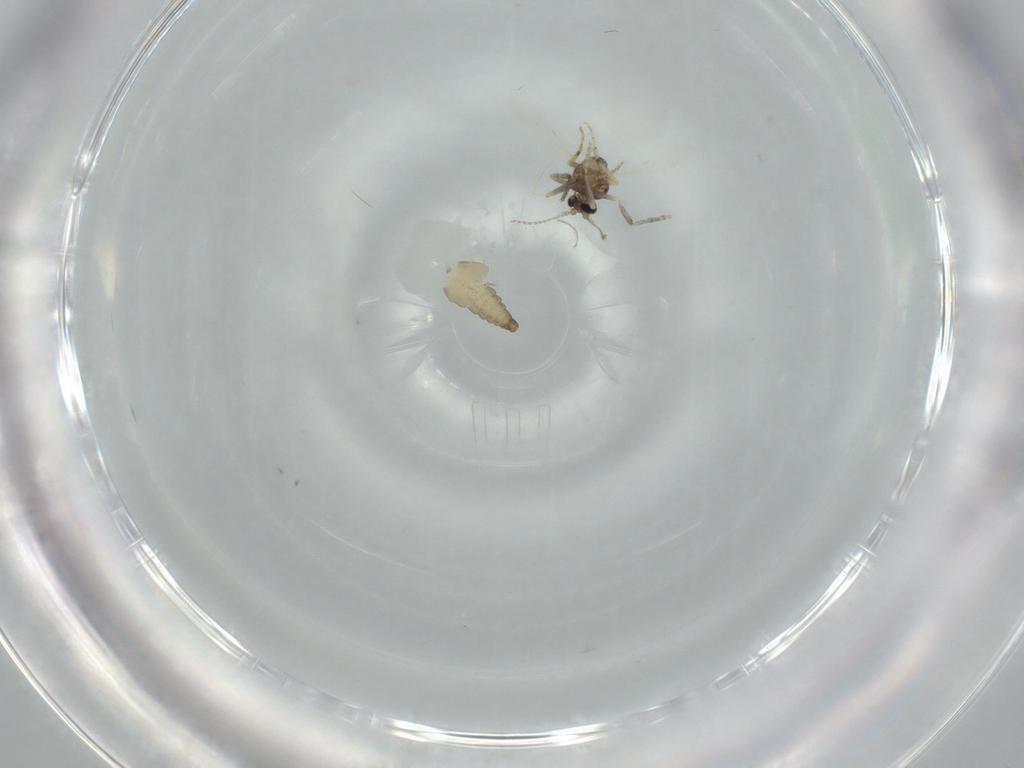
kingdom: Animalia
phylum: Arthropoda
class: Insecta
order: Diptera
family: Ceratopogonidae
